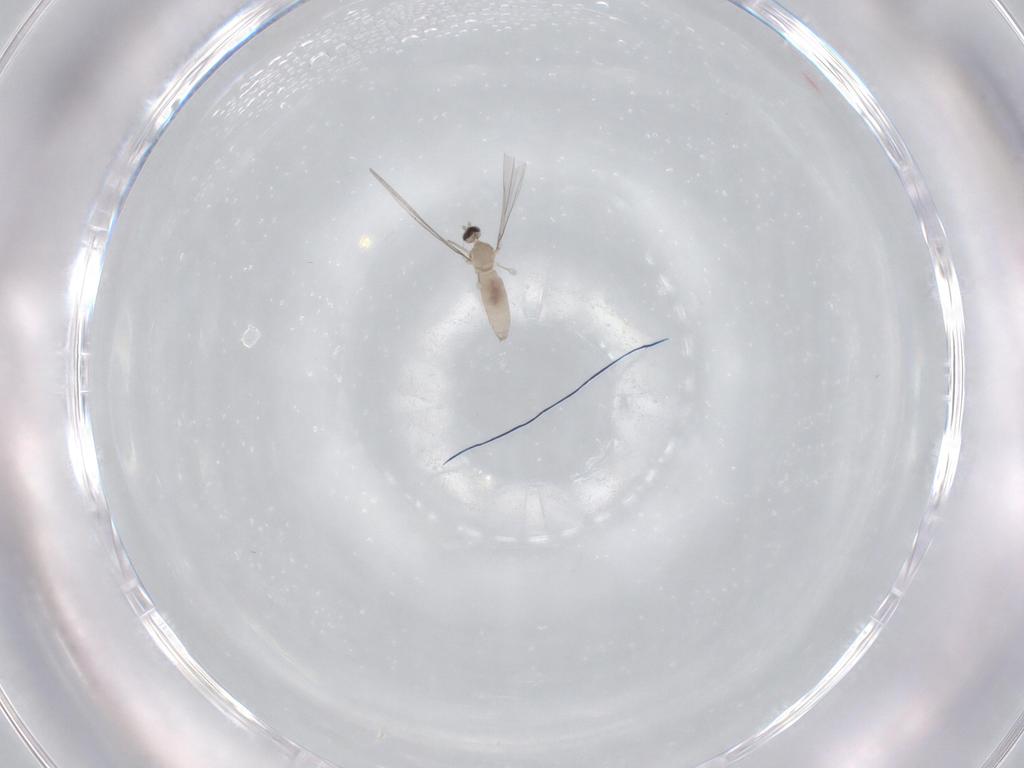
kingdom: Animalia
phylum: Arthropoda
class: Insecta
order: Diptera
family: Cecidomyiidae
